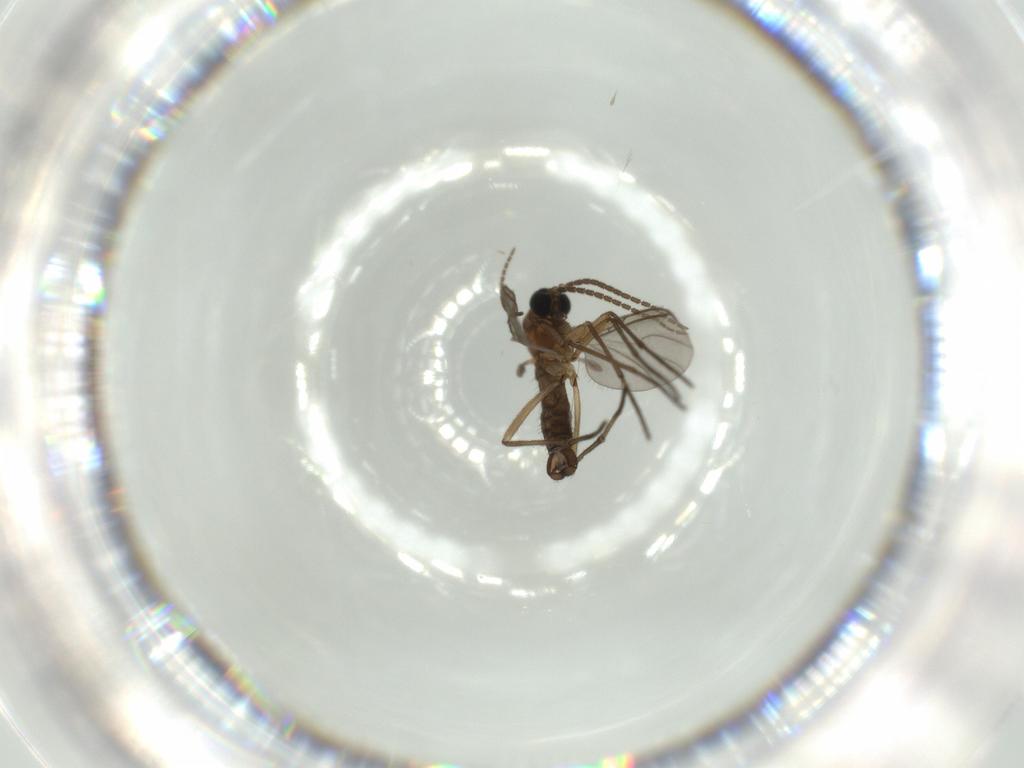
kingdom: Animalia
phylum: Arthropoda
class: Insecta
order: Diptera
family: Sciaridae
